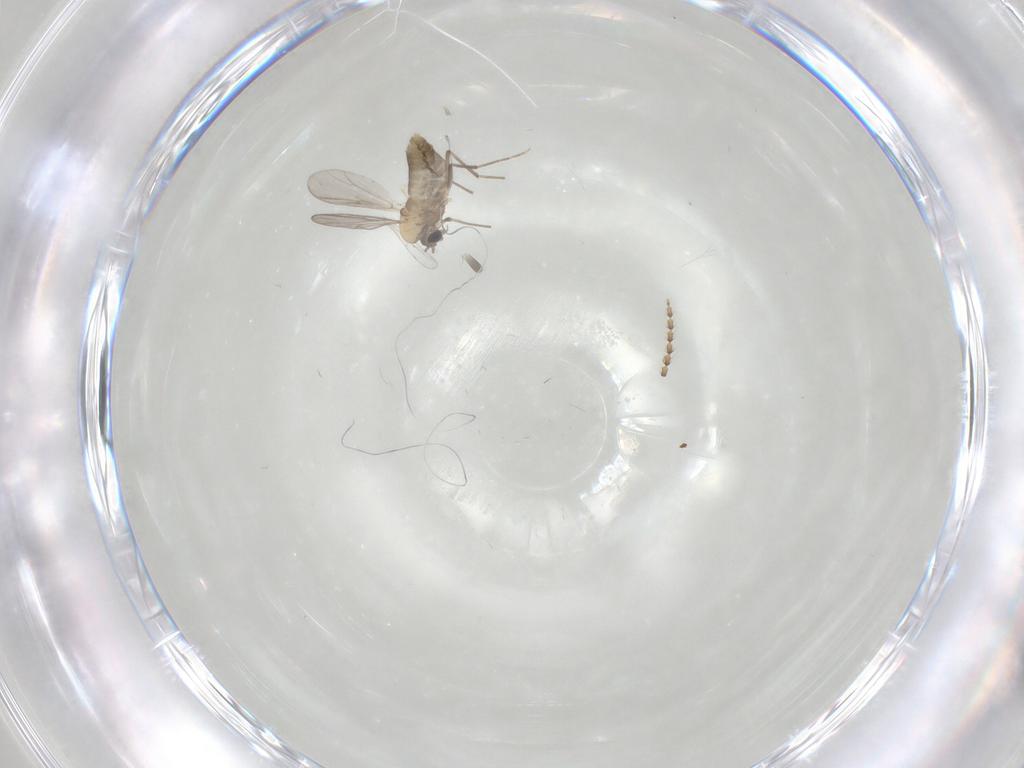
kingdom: Animalia
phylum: Arthropoda
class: Insecta
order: Diptera
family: Chironomidae
